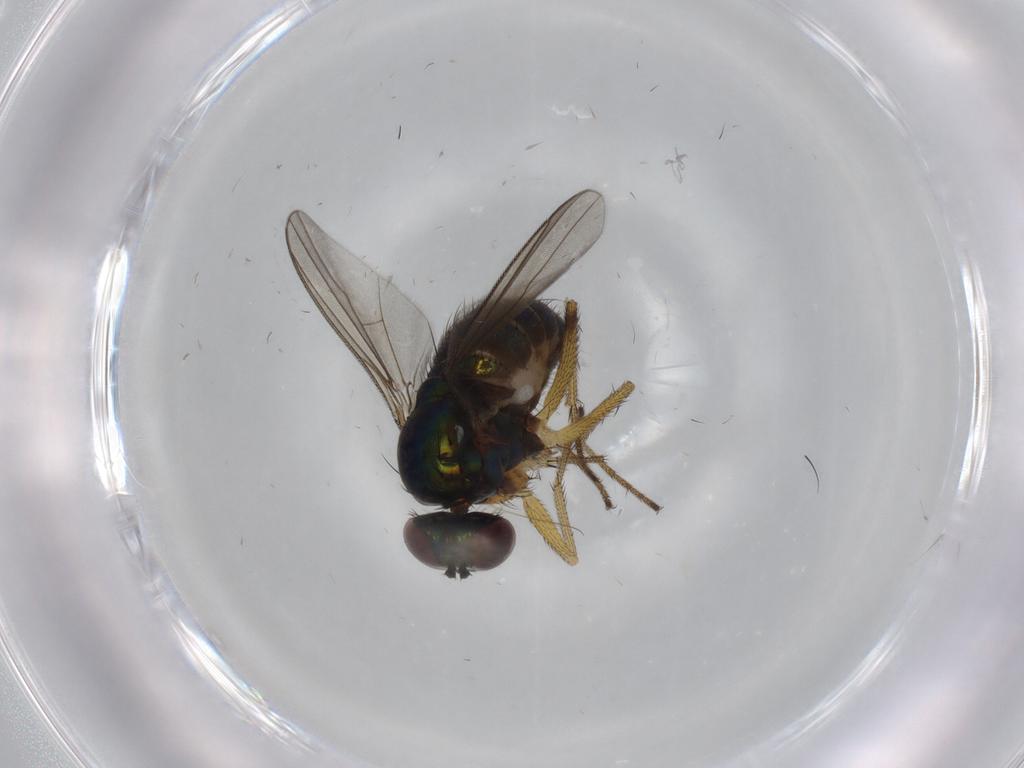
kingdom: Animalia
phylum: Arthropoda
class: Insecta
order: Diptera
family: Dolichopodidae
